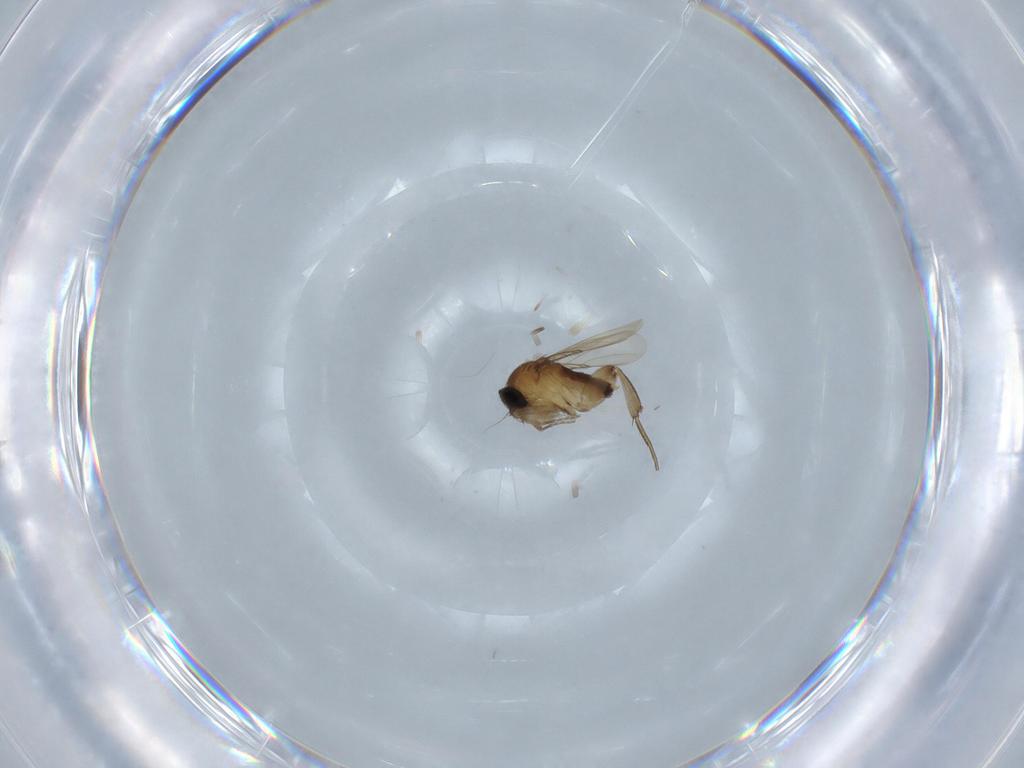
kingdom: Animalia
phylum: Arthropoda
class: Insecta
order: Diptera
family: Phoridae
